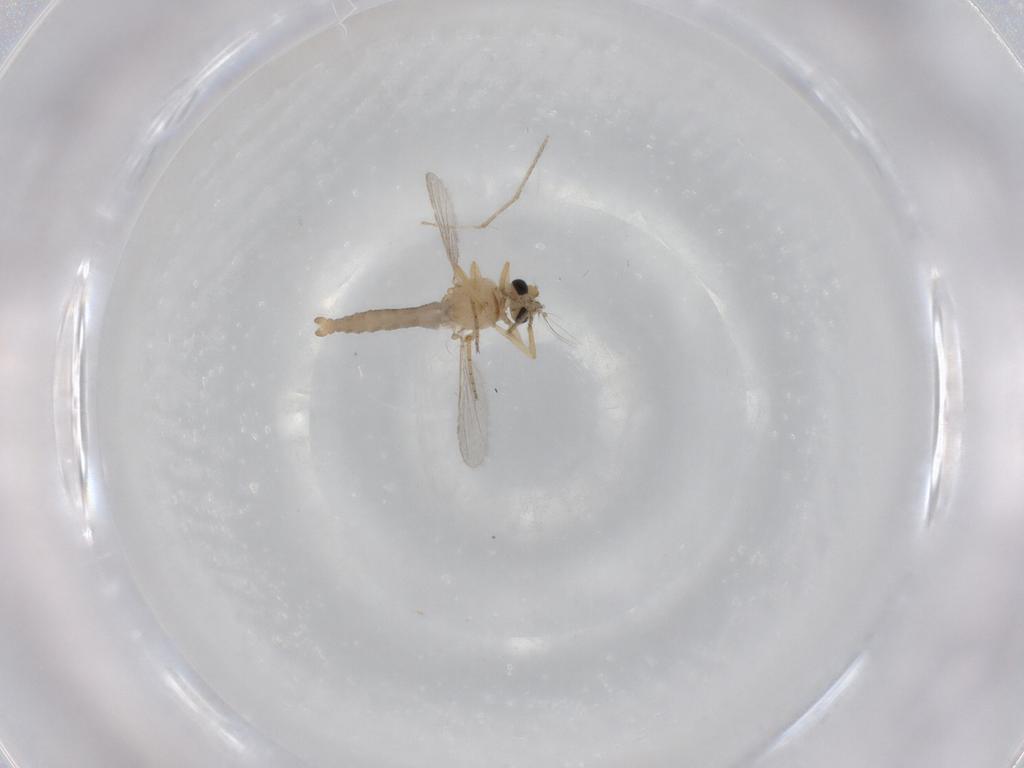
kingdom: Animalia
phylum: Arthropoda
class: Insecta
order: Diptera
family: Ceratopogonidae
